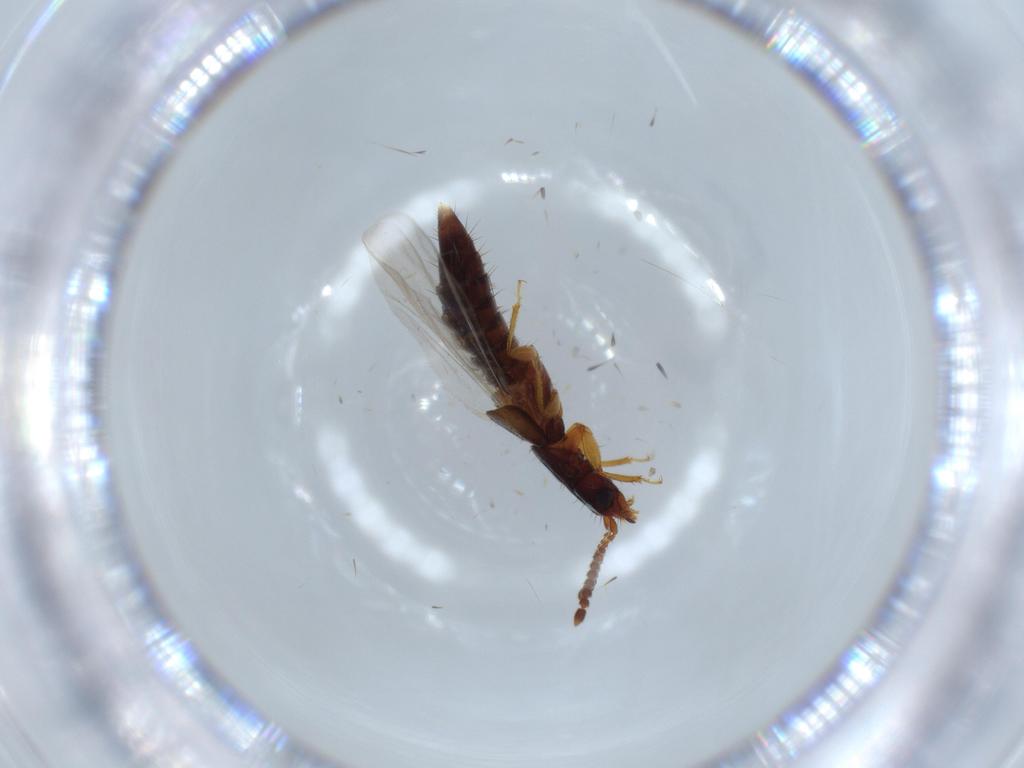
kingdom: Animalia
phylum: Arthropoda
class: Insecta
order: Coleoptera
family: Staphylinidae
